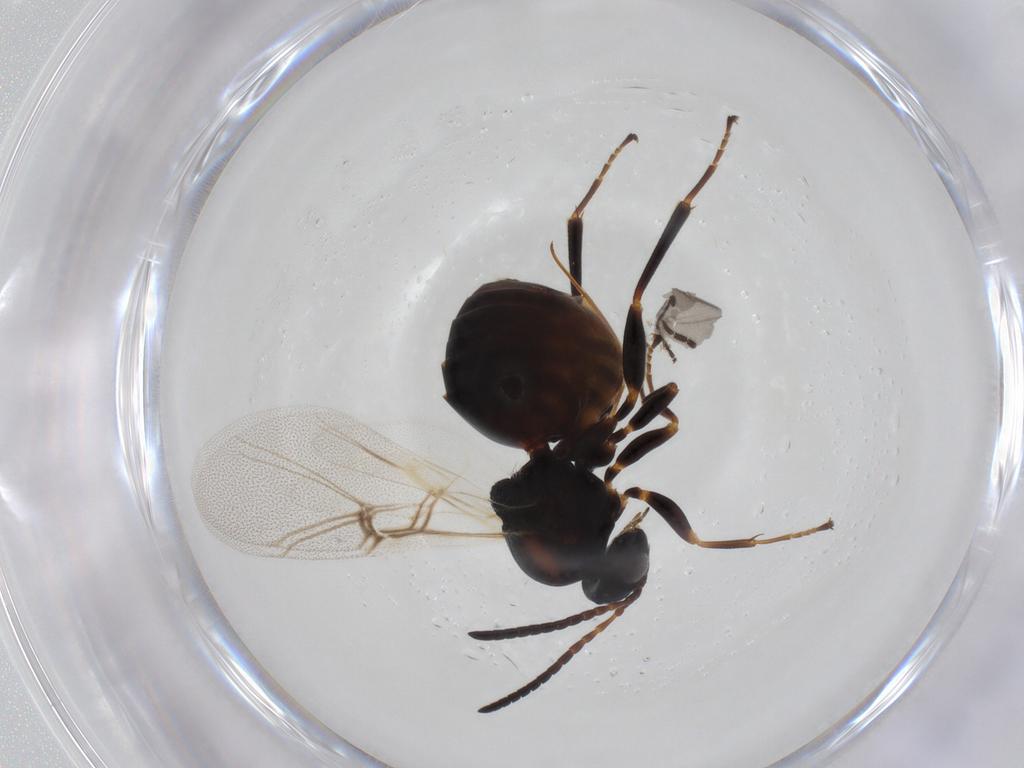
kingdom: Animalia
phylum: Arthropoda
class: Insecta
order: Hymenoptera
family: Cynipidae
